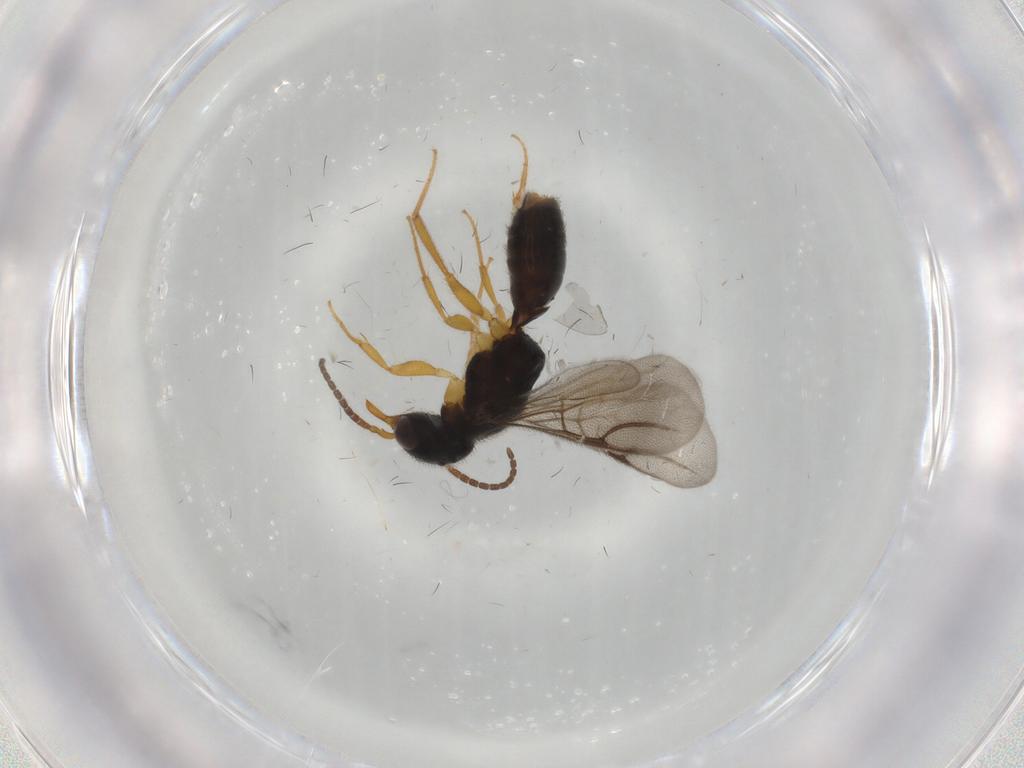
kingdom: Animalia
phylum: Arthropoda
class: Insecta
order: Hymenoptera
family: Bethylidae
